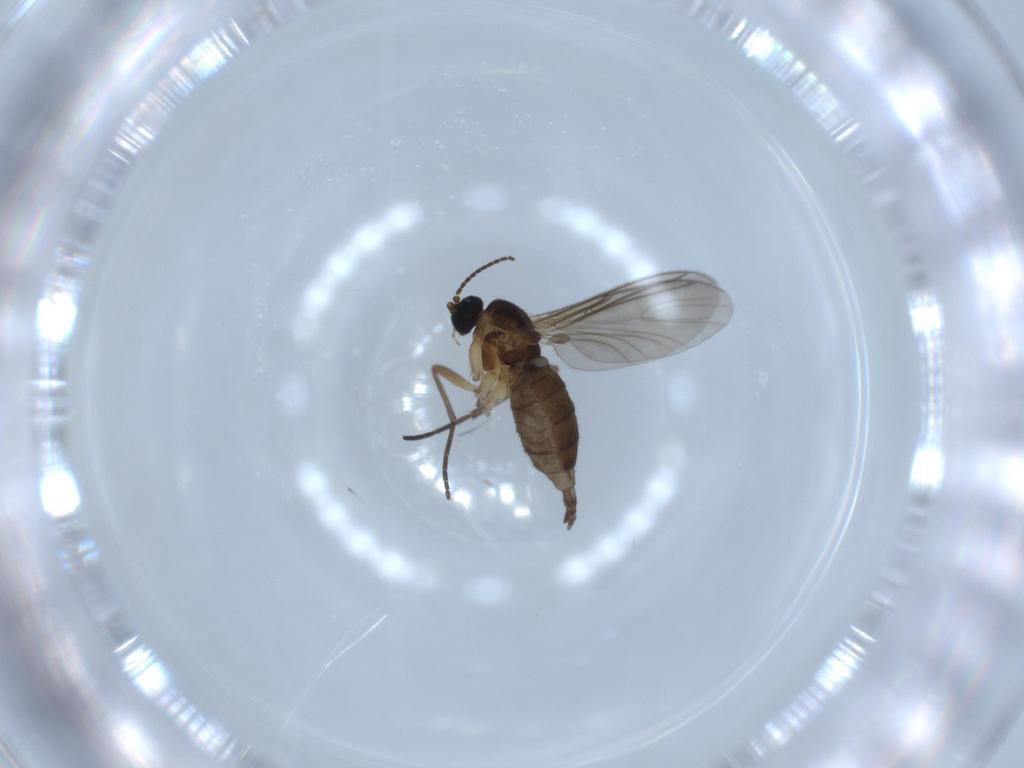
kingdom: Animalia
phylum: Arthropoda
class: Insecta
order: Diptera
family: Sciaridae
